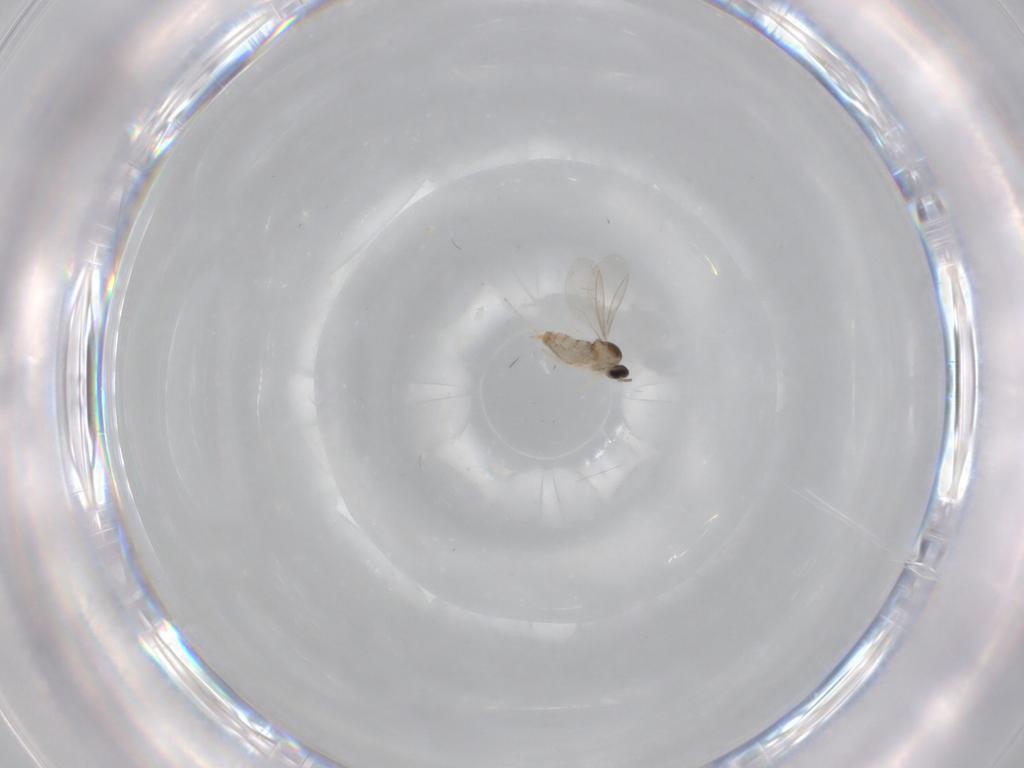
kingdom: Animalia
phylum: Arthropoda
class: Insecta
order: Diptera
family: Cecidomyiidae
